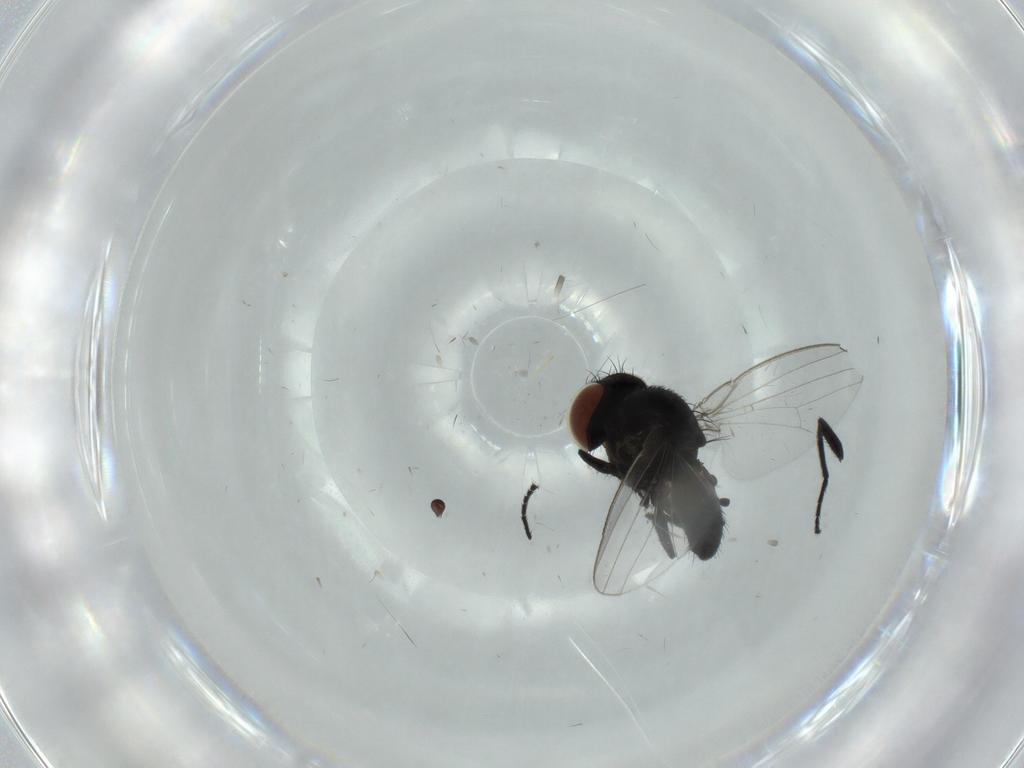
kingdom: Animalia
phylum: Arthropoda
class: Insecta
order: Diptera
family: Milichiidae
